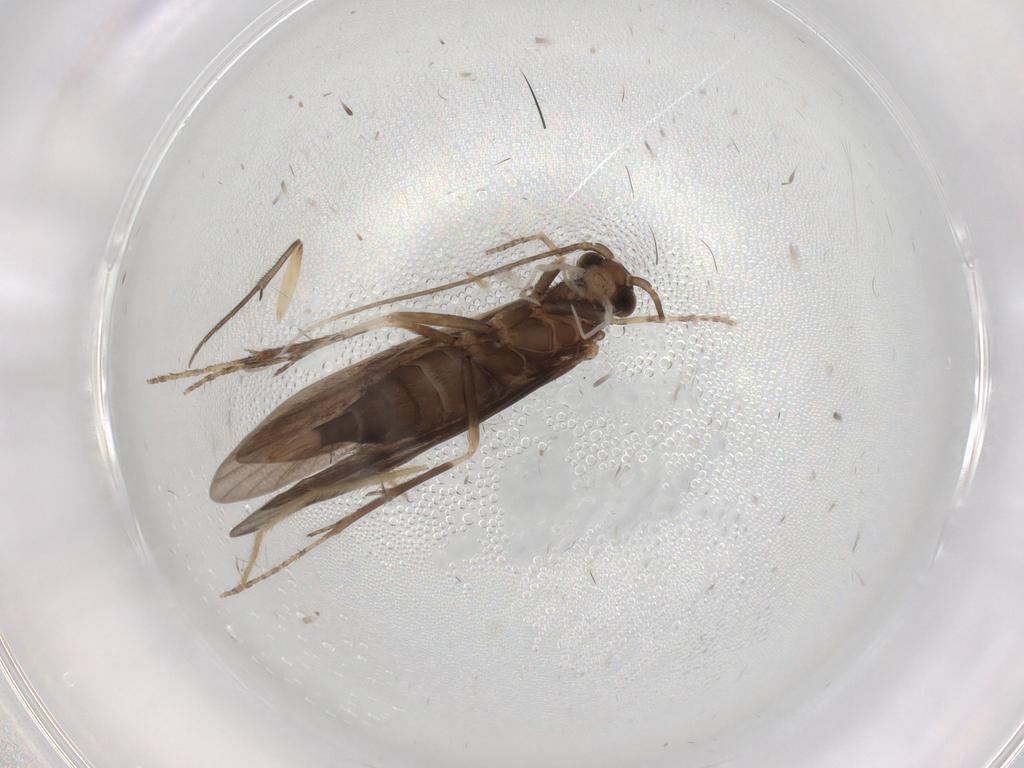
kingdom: Animalia
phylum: Arthropoda
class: Insecta
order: Trichoptera
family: Xiphocentronidae
